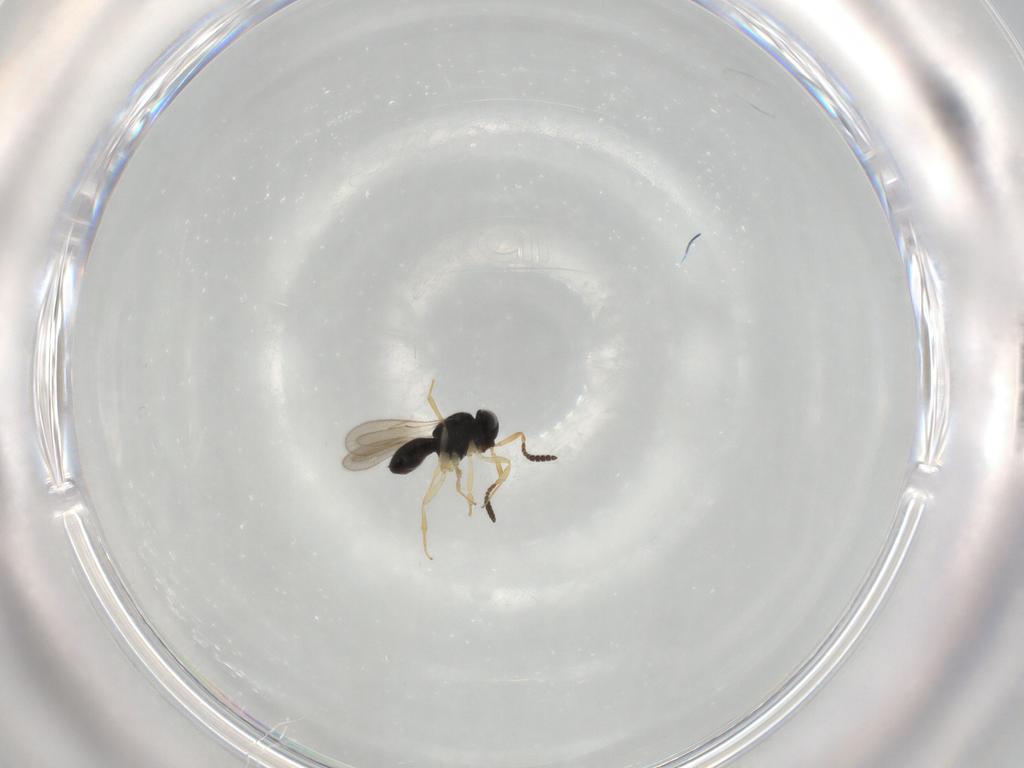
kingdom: Animalia
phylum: Arthropoda
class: Insecta
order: Hymenoptera
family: Scelionidae
